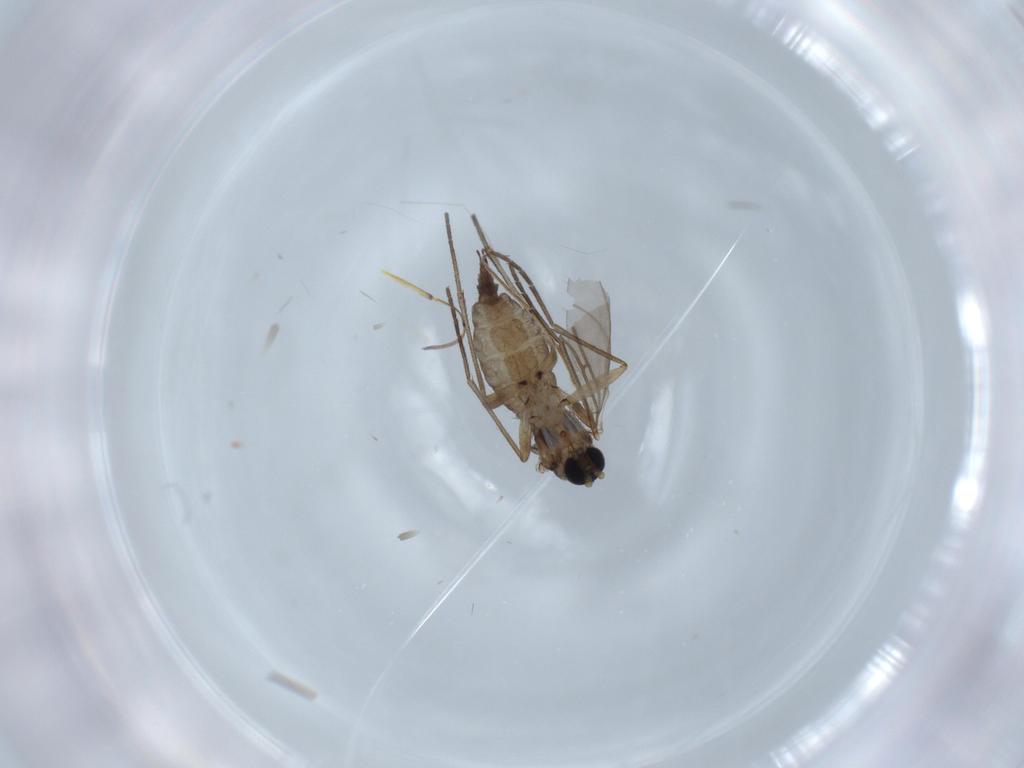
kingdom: Animalia
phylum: Arthropoda
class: Insecta
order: Diptera
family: Sciaridae
